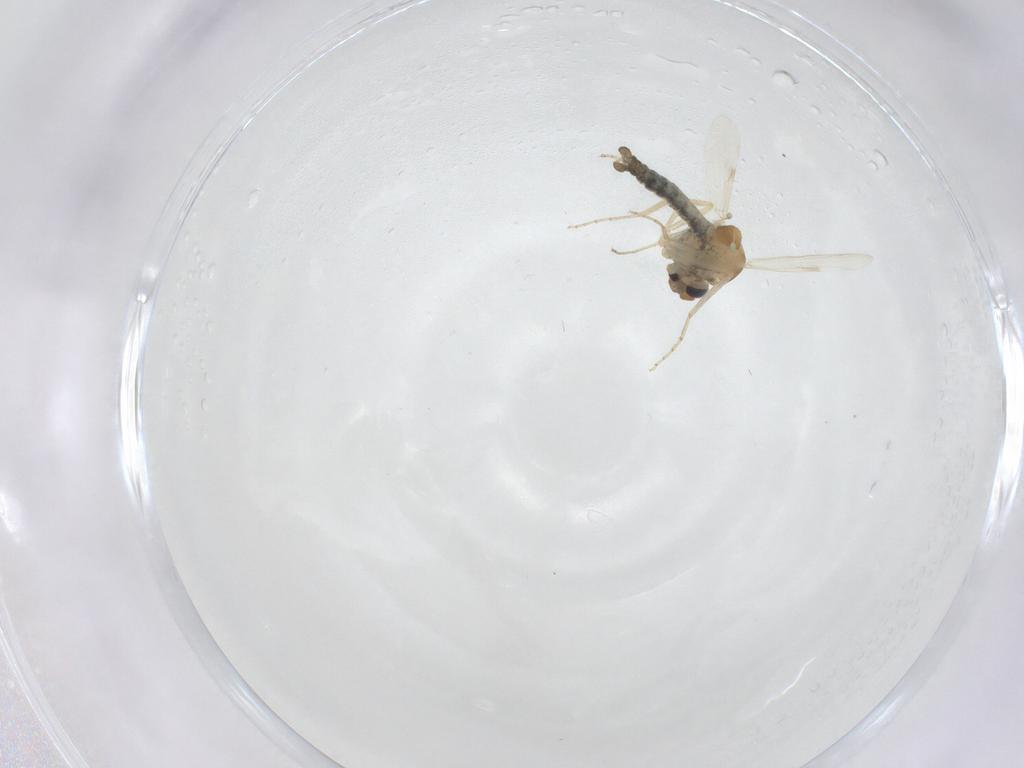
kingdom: Animalia
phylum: Arthropoda
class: Insecta
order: Diptera
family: Ceratopogonidae
